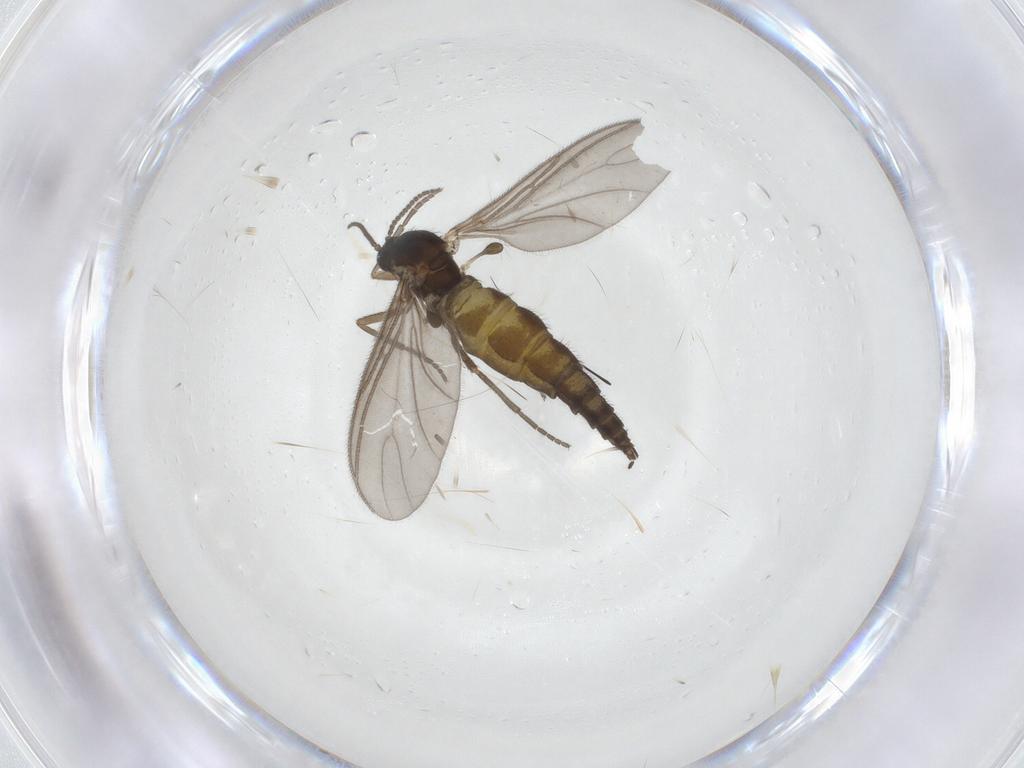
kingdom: Animalia
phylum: Arthropoda
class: Insecta
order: Diptera
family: Sciaridae
